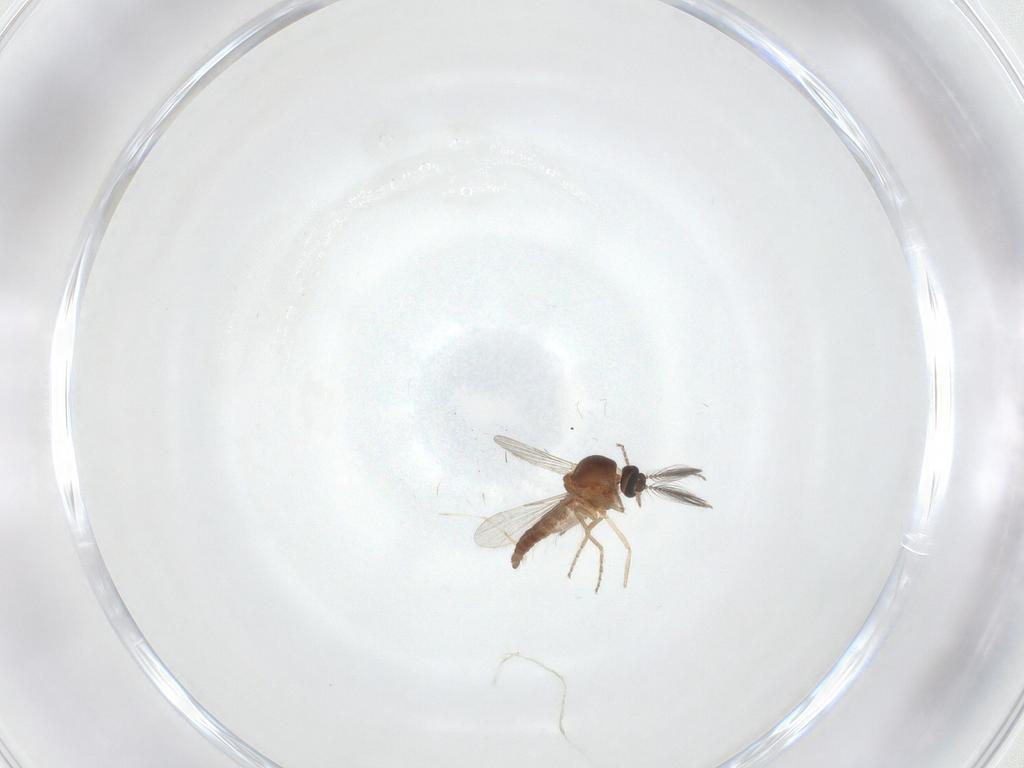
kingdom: Animalia
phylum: Arthropoda
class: Insecta
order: Diptera
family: Ceratopogonidae
